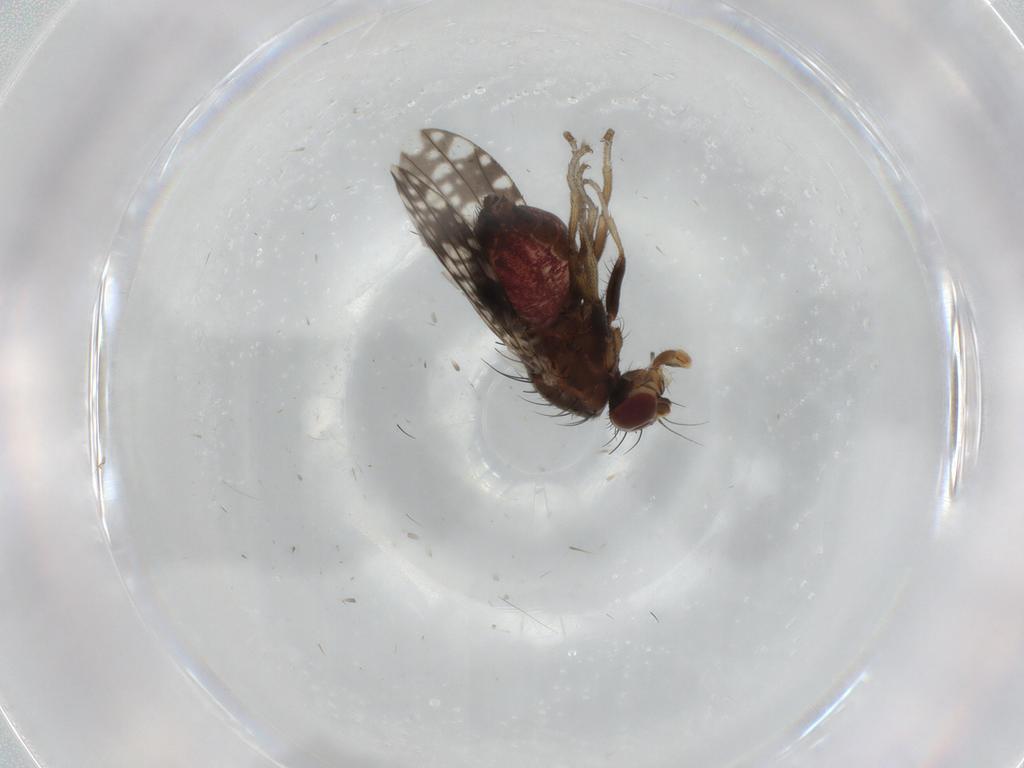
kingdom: Animalia
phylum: Arthropoda
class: Insecta
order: Diptera
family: Tephritidae
